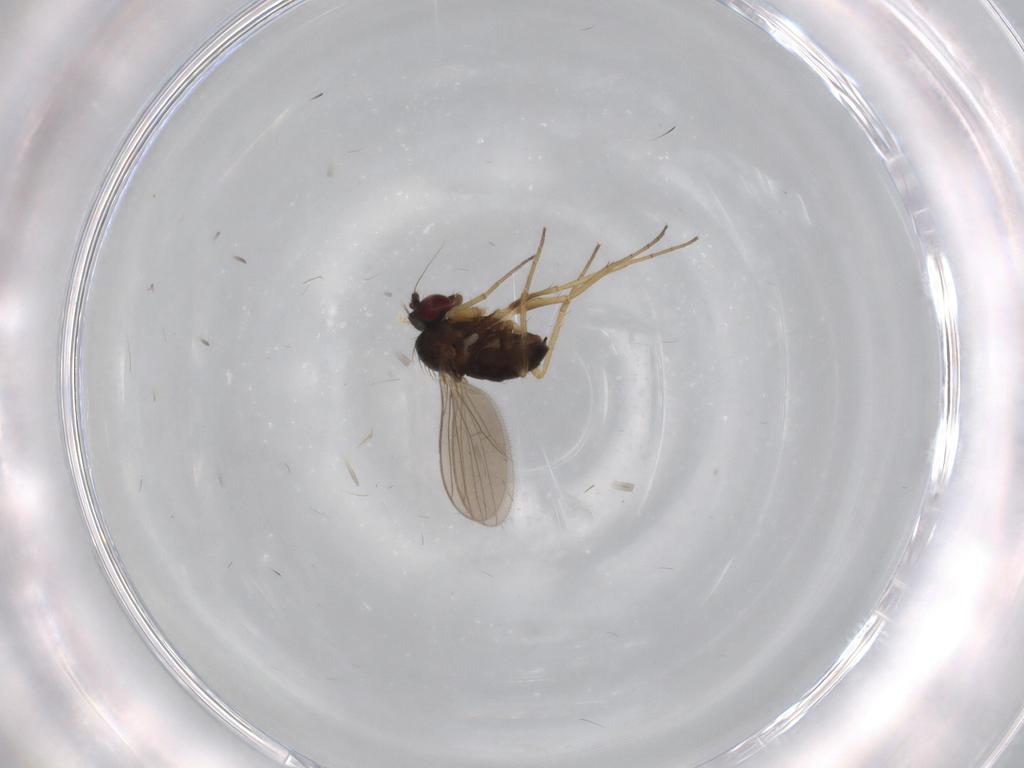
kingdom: Animalia
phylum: Arthropoda
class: Insecta
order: Diptera
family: Dolichopodidae
